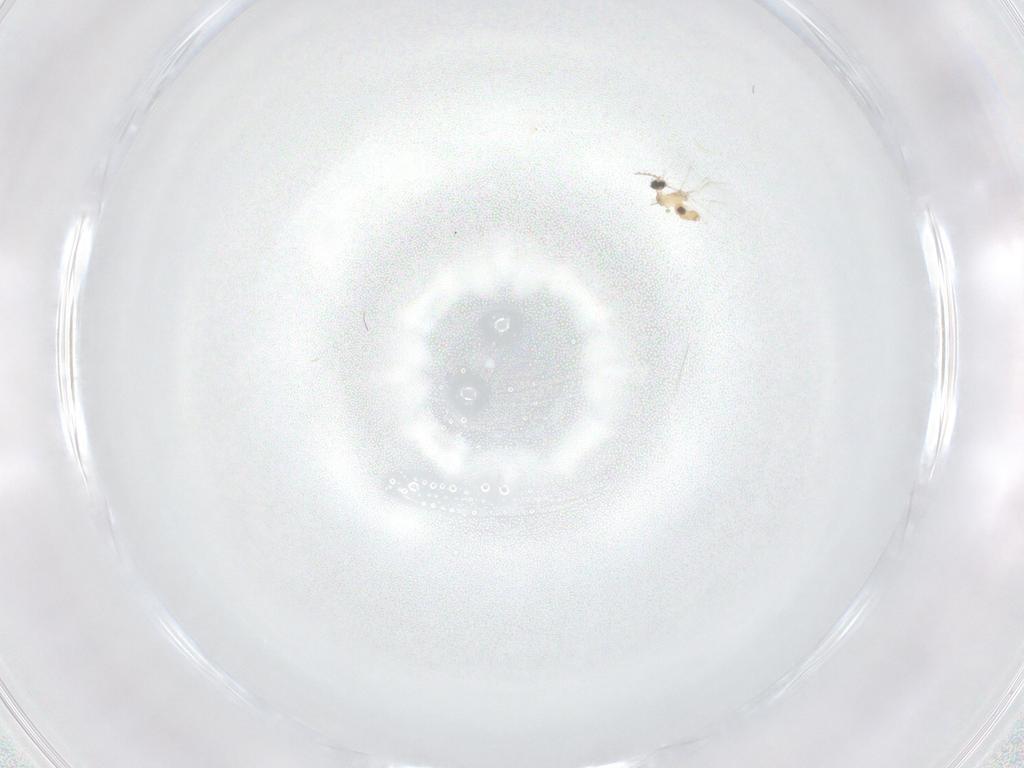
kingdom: Animalia
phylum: Arthropoda
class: Insecta
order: Diptera
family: Cecidomyiidae
